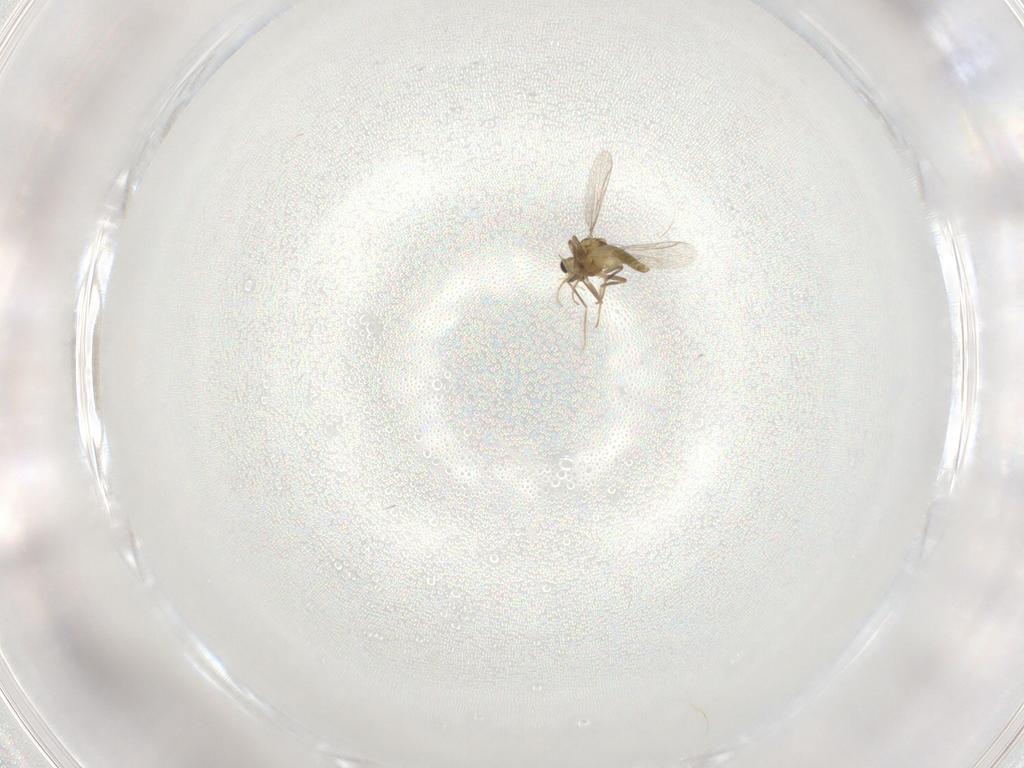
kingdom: Animalia
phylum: Arthropoda
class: Insecta
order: Diptera
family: Chironomidae
